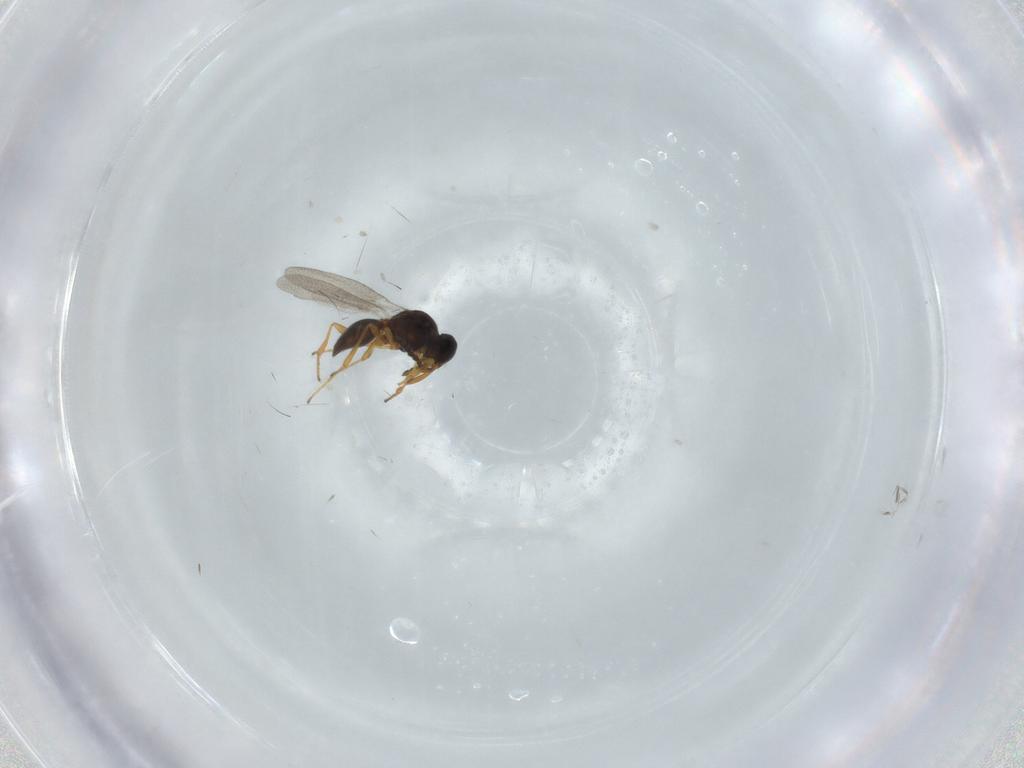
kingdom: Animalia
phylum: Arthropoda
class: Insecta
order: Hymenoptera
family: Platygastridae
